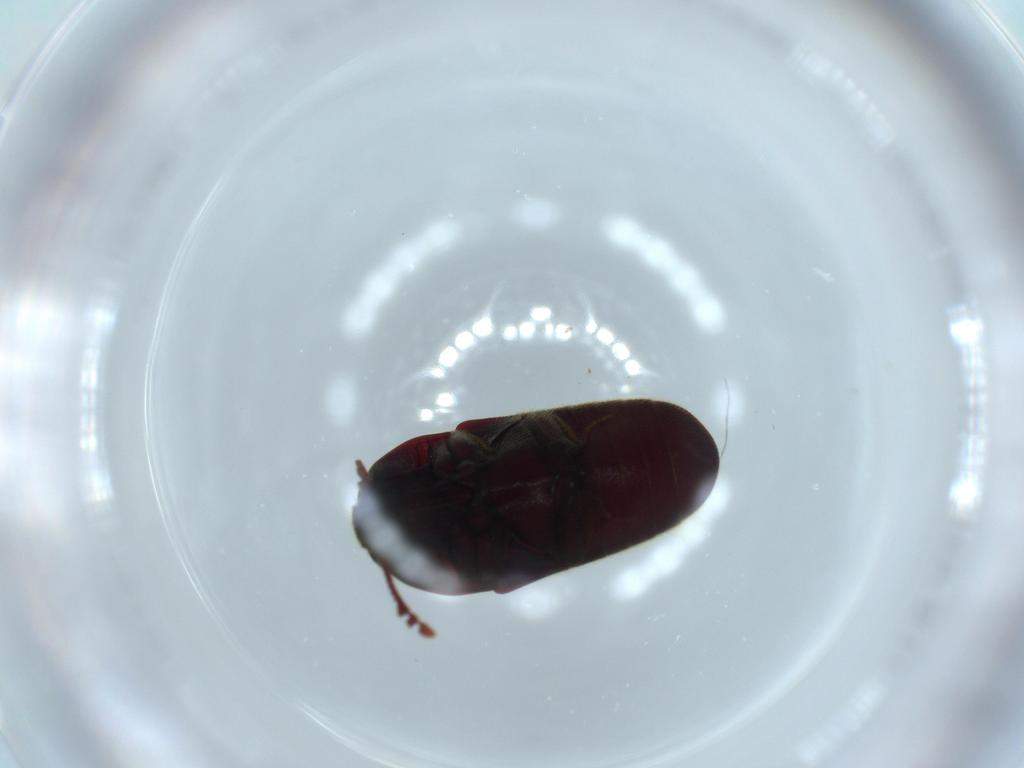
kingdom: Animalia
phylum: Arthropoda
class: Insecta
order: Coleoptera
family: Throscidae
